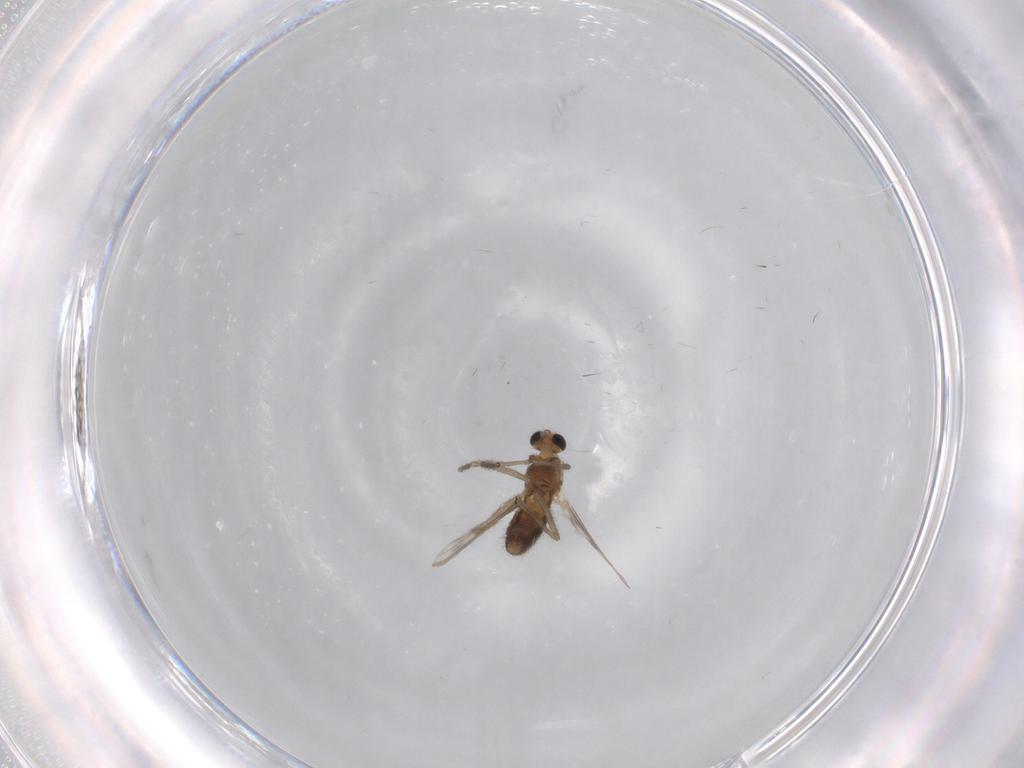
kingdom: Animalia
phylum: Arthropoda
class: Insecta
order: Diptera
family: Chironomidae
